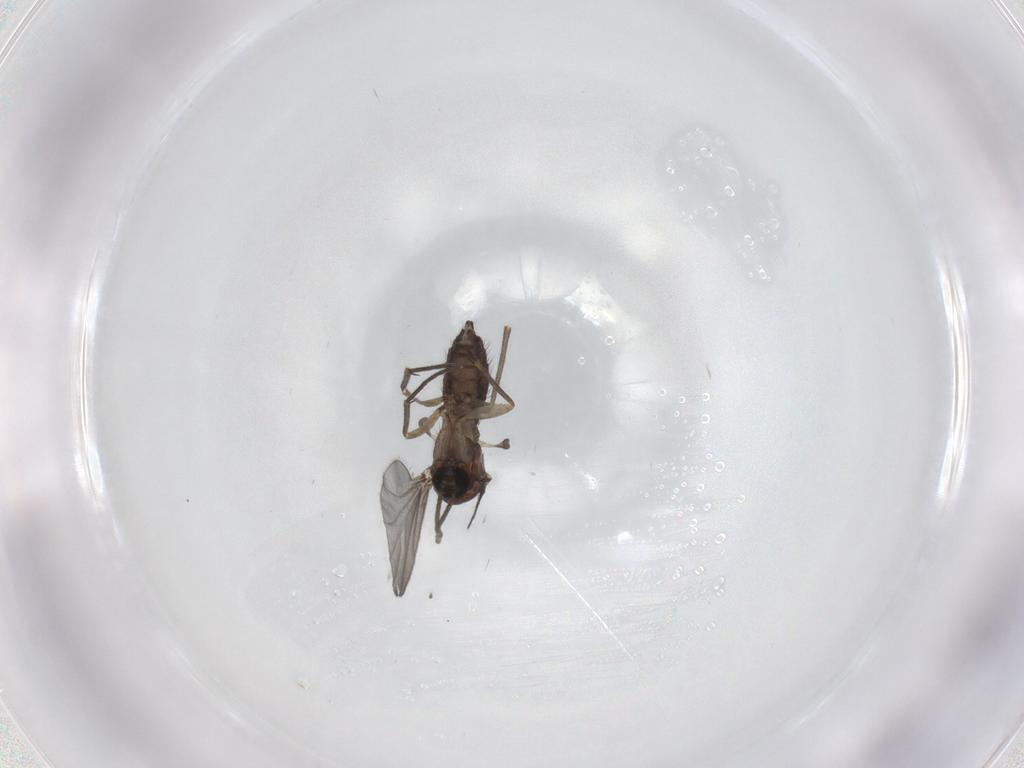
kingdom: Animalia
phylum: Arthropoda
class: Insecta
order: Diptera
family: Sciaridae
